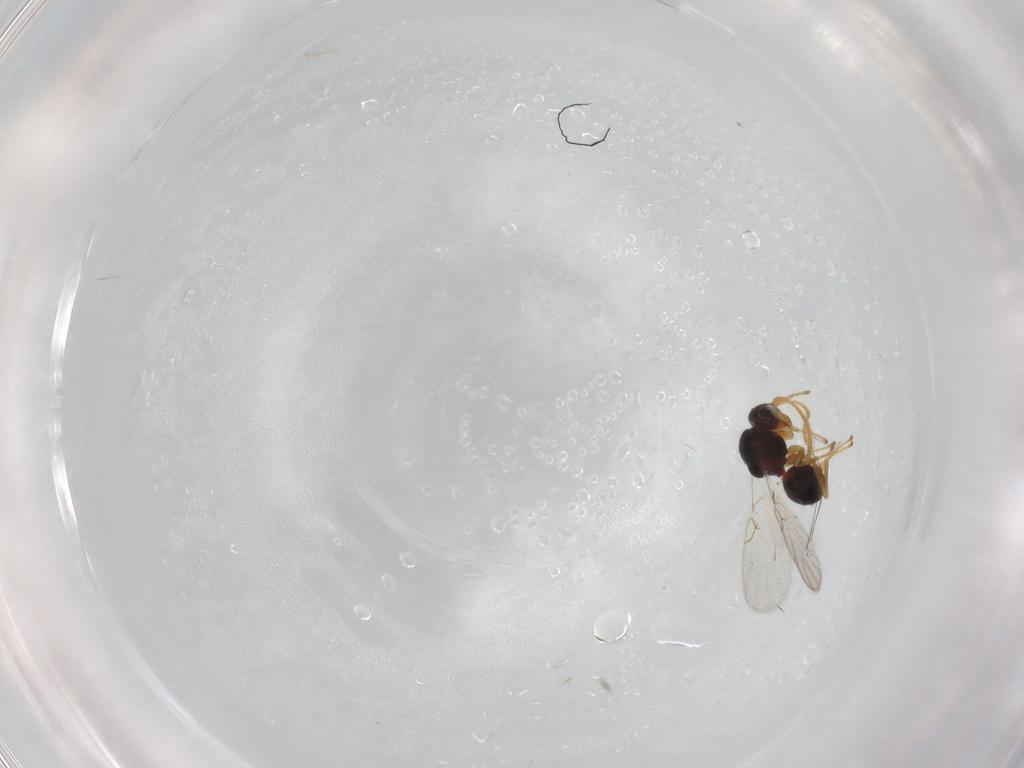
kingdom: Animalia
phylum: Arthropoda
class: Insecta
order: Hymenoptera
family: Figitidae
